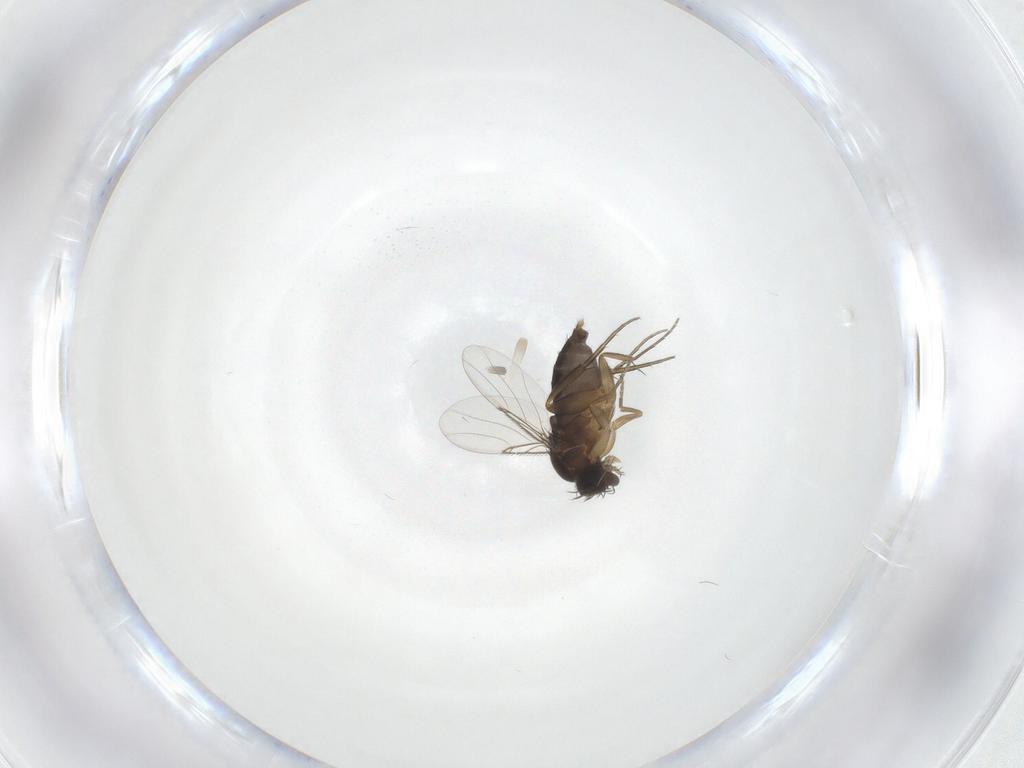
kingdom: Animalia
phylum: Arthropoda
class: Insecta
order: Diptera
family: Phoridae
